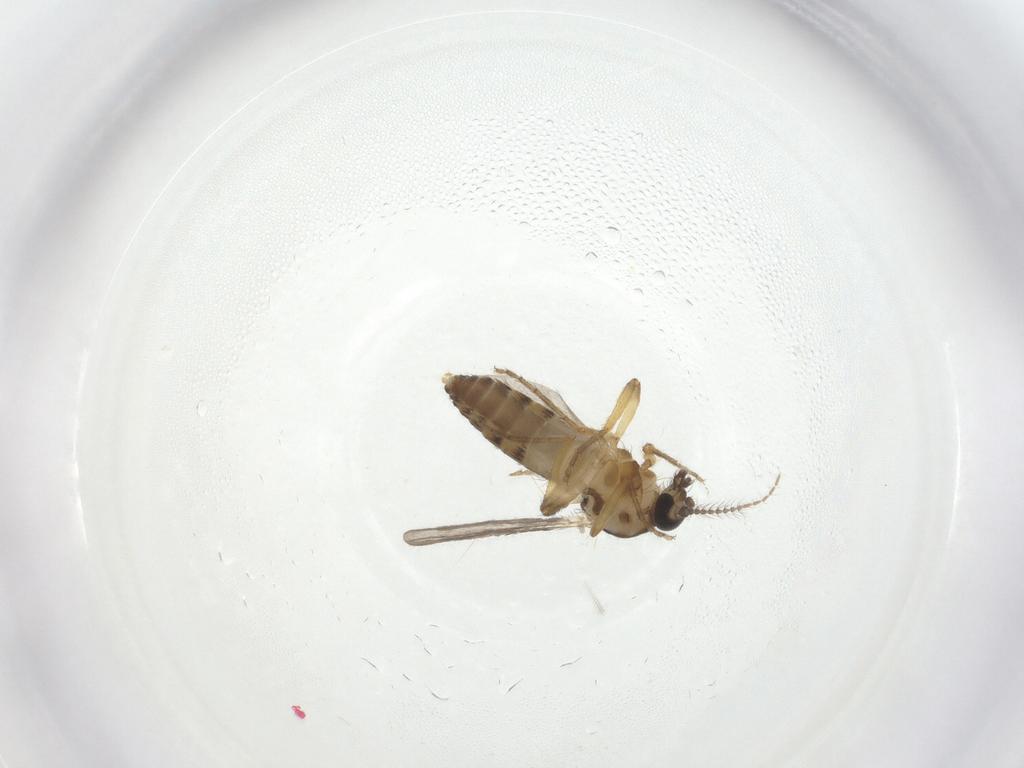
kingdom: Animalia
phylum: Arthropoda
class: Insecta
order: Diptera
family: Ceratopogonidae
